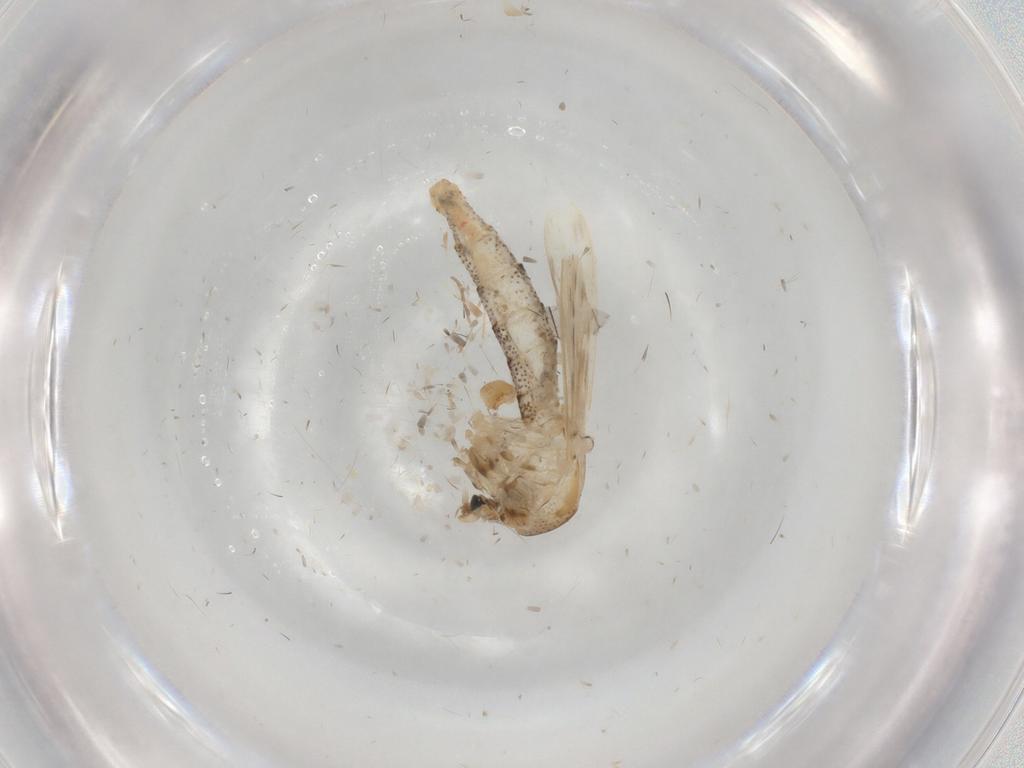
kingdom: Animalia
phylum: Arthropoda
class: Insecta
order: Diptera
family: Chaoboridae
